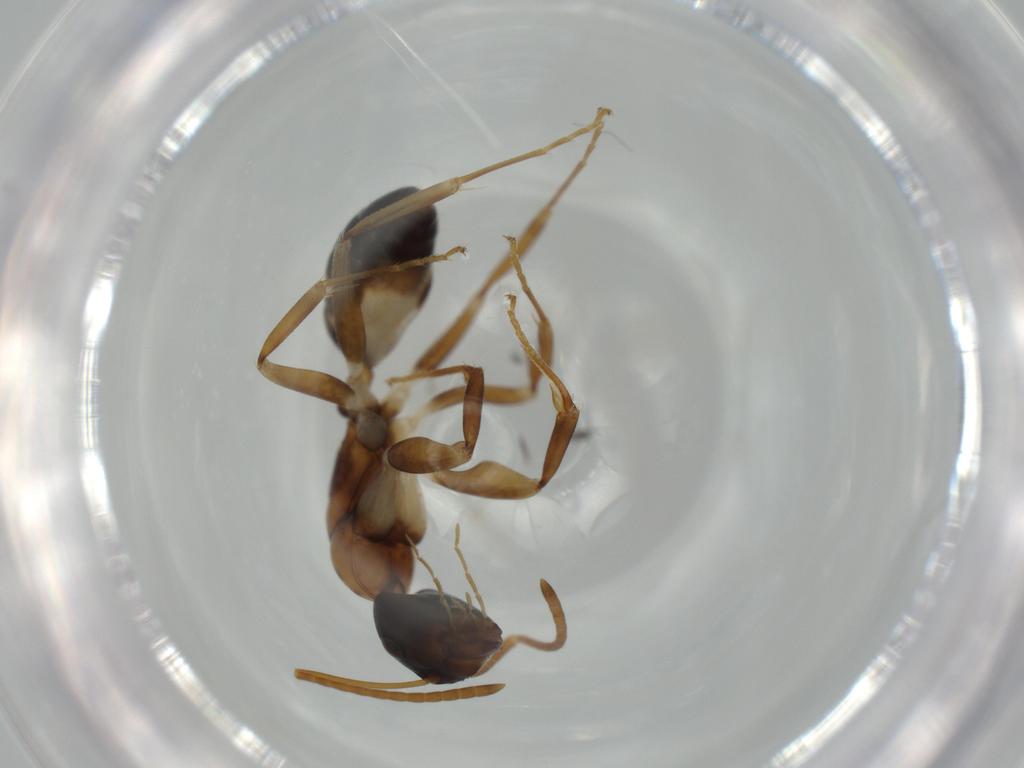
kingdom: Animalia
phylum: Arthropoda
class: Insecta
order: Hymenoptera
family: Formicidae
